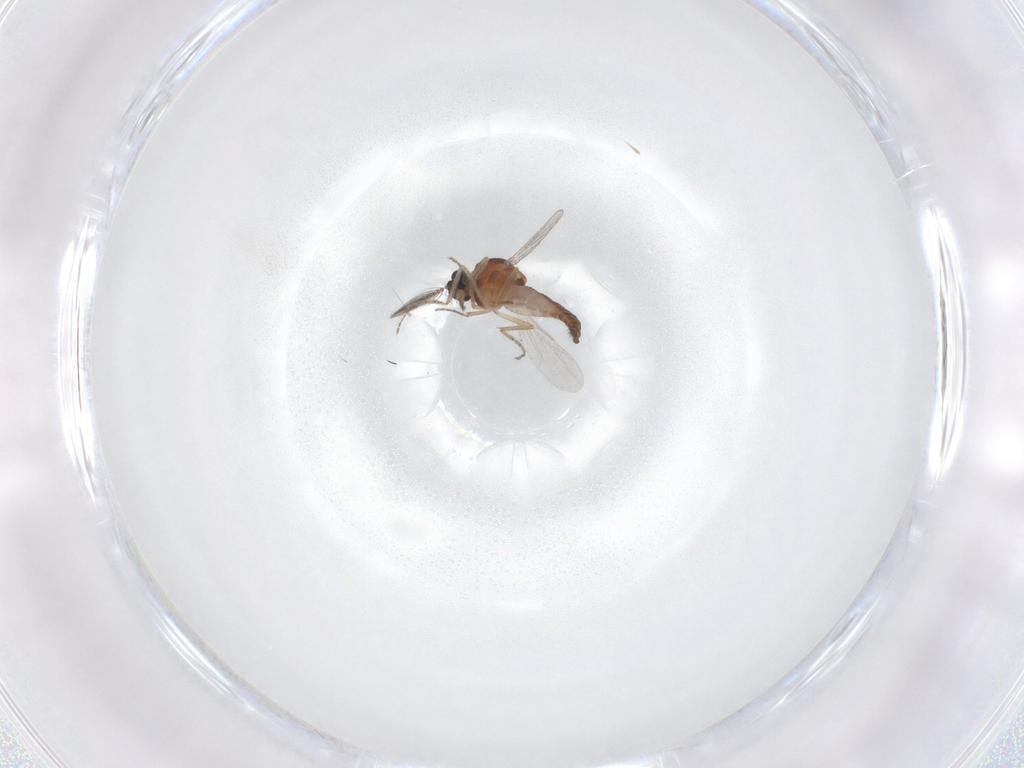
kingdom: Animalia
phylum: Arthropoda
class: Insecta
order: Diptera
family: Ceratopogonidae
